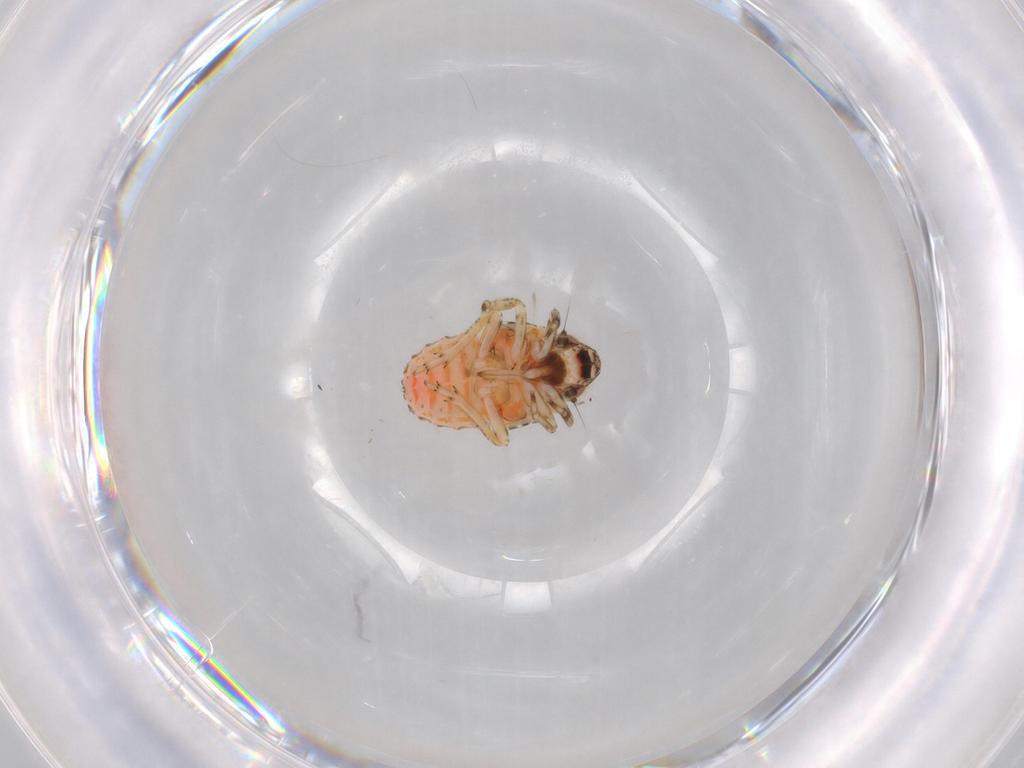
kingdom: Animalia
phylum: Arthropoda
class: Insecta
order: Hemiptera
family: Issidae
